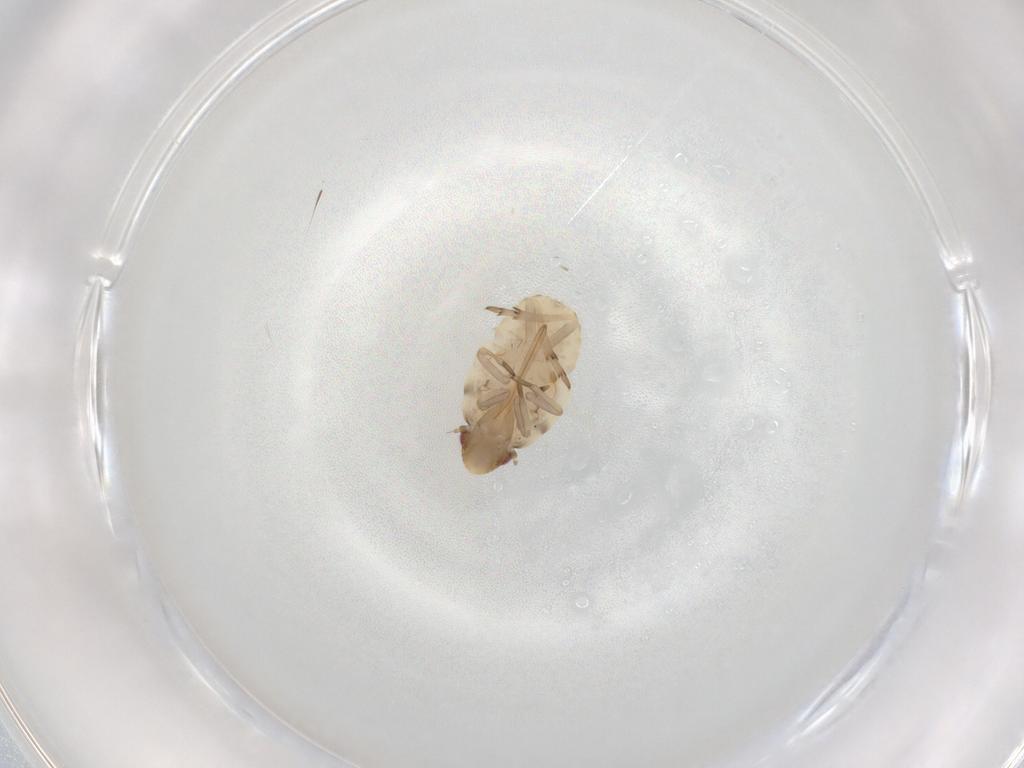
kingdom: Animalia
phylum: Arthropoda
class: Insecta
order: Hemiptera
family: Flatidae
